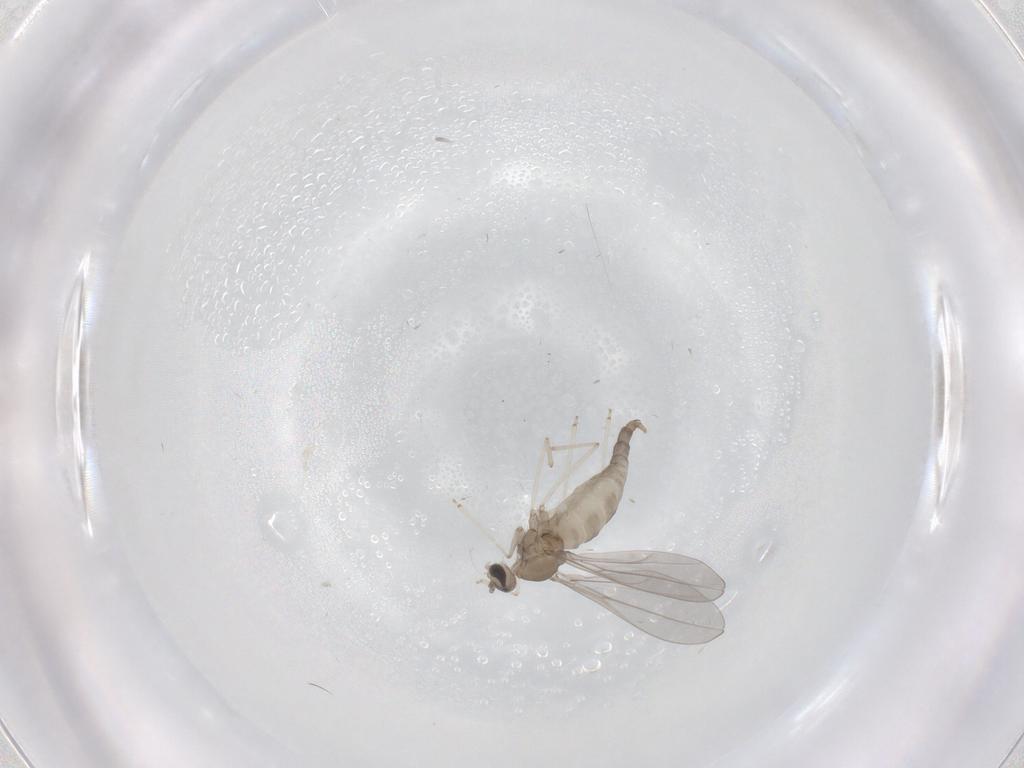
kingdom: Animalia
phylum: Arthropoda
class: Insecta
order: Diptera
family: Cecidomyiidae
